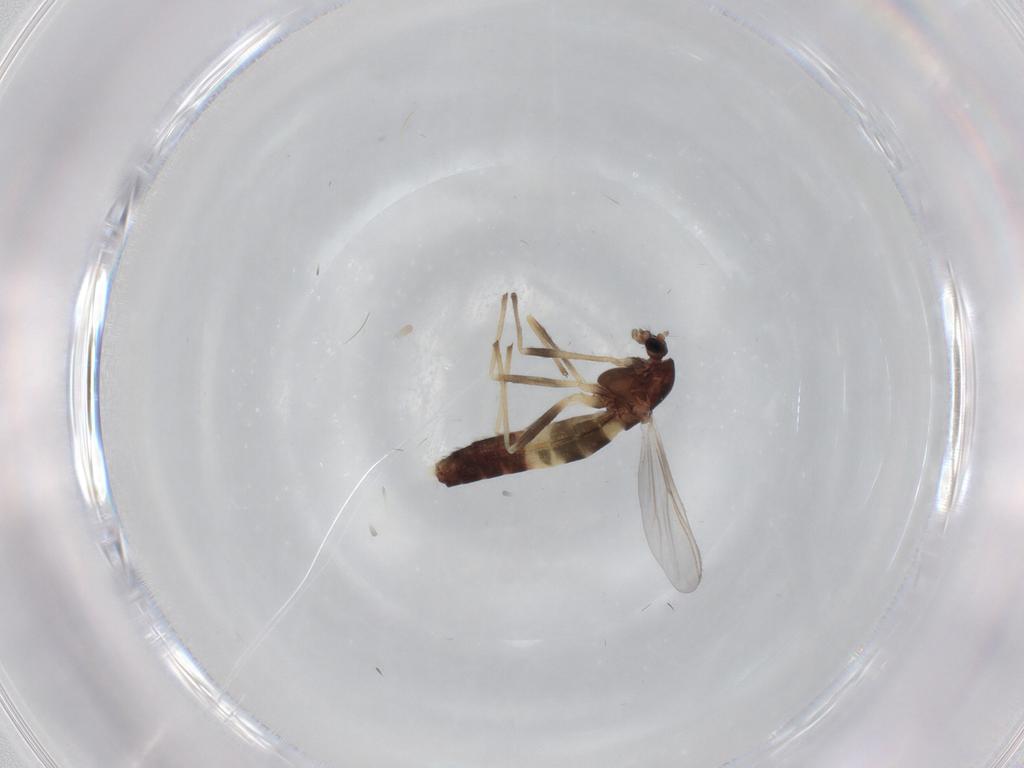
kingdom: Animalia
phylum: Arthropoda
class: Insecta
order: Diptera
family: Chironomidae
